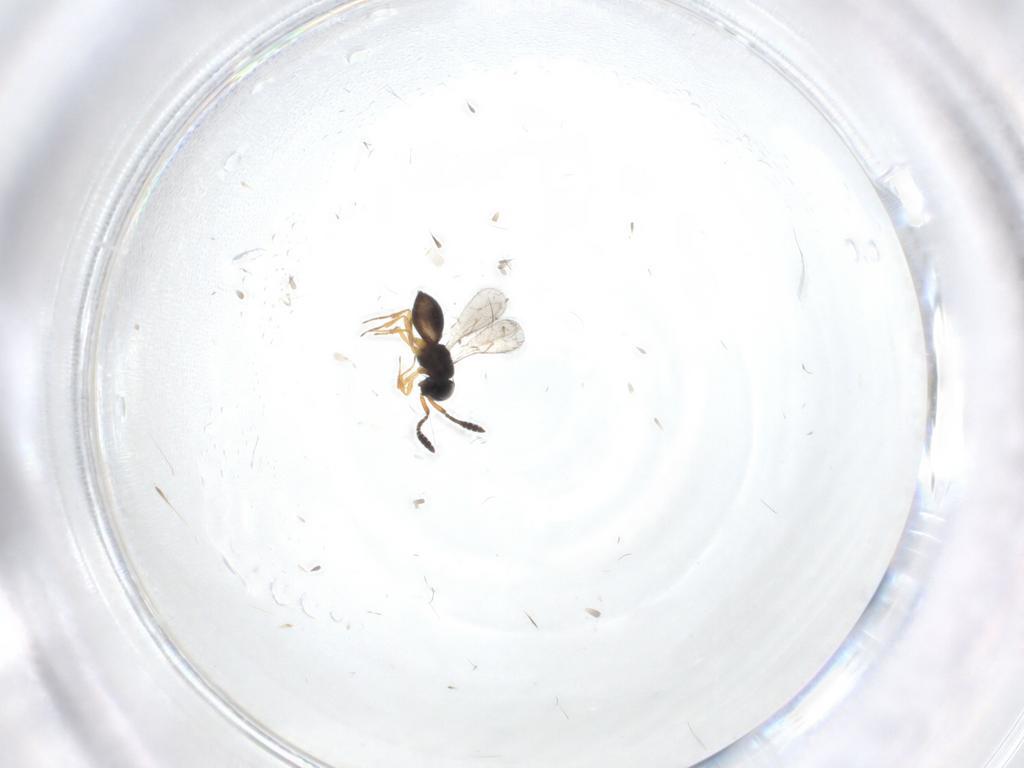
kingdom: Animalia
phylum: Arthropoda
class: Insecta
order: Hymenoptera
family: Scelionidae
